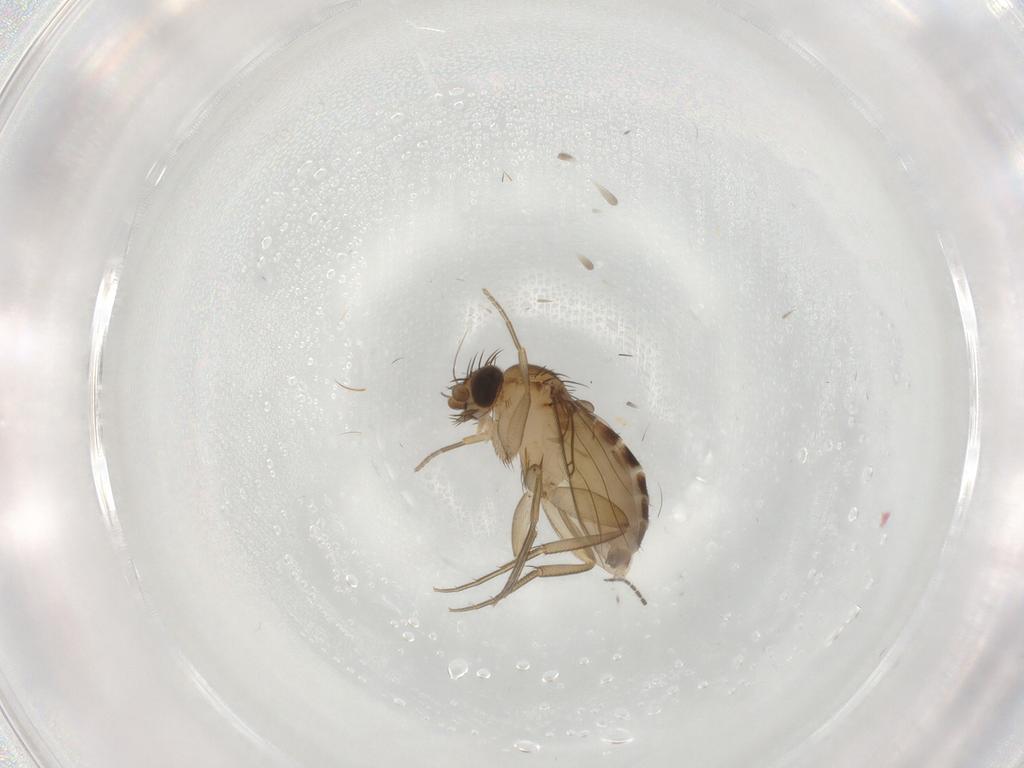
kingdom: Animalia
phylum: Arthropoda
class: Insecta
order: Diptera
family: Phoridae
